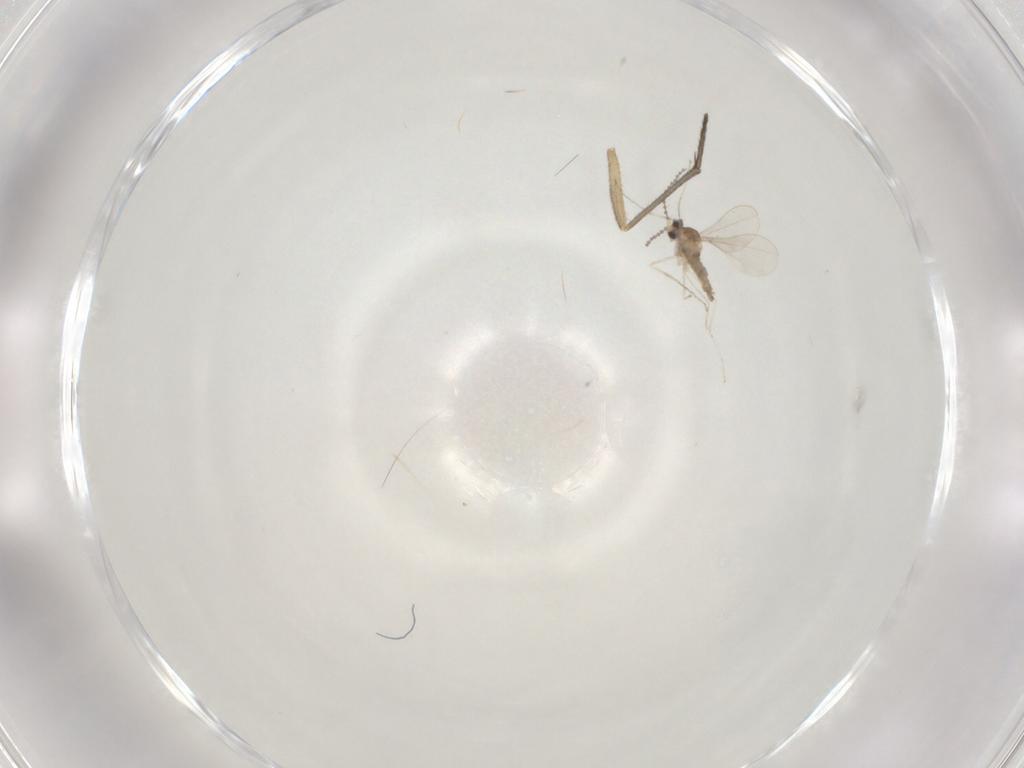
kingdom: Animalia
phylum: Arthropoda
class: Insecta
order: Diptera
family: Cecidomyiidae
